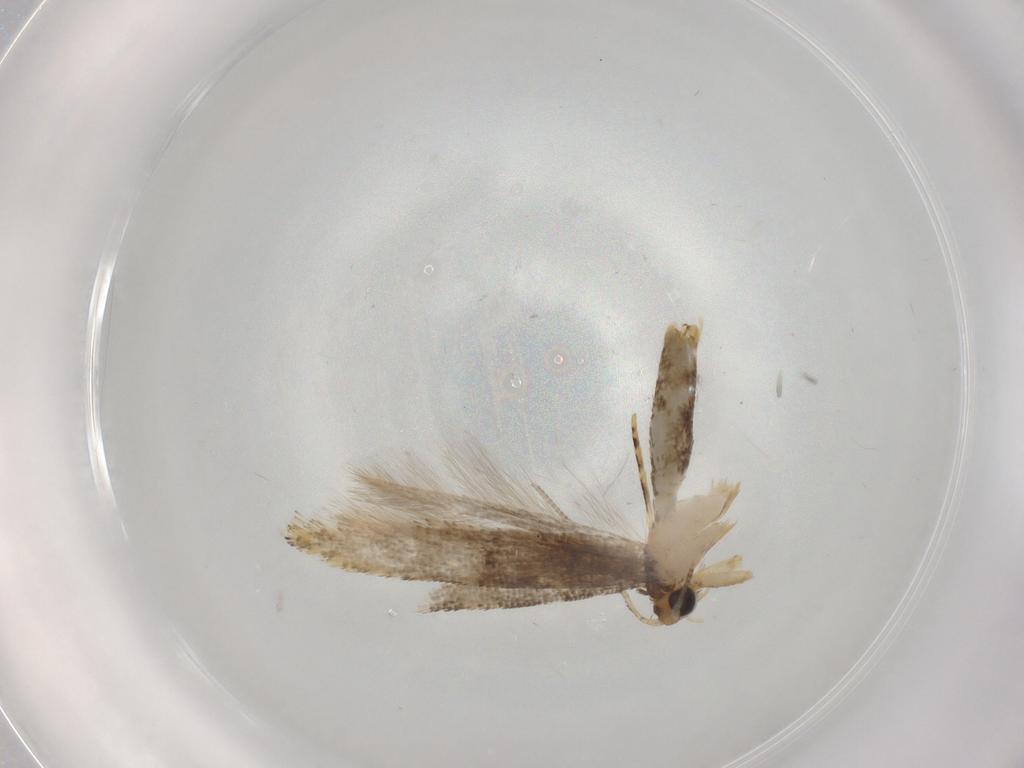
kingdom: Animalia
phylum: Arthropoda
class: Insecta
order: Lepidoptera
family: Tineidae
